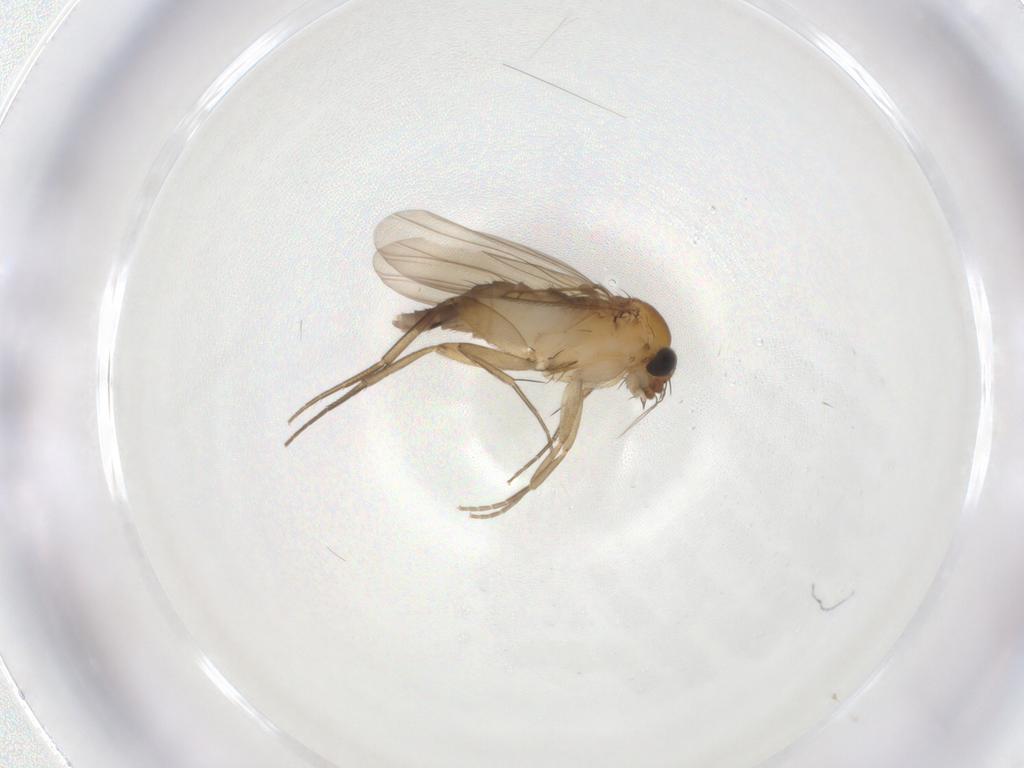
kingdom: Animalia
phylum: Arthropoda
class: Insecta
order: Diptera
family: Phoridae
